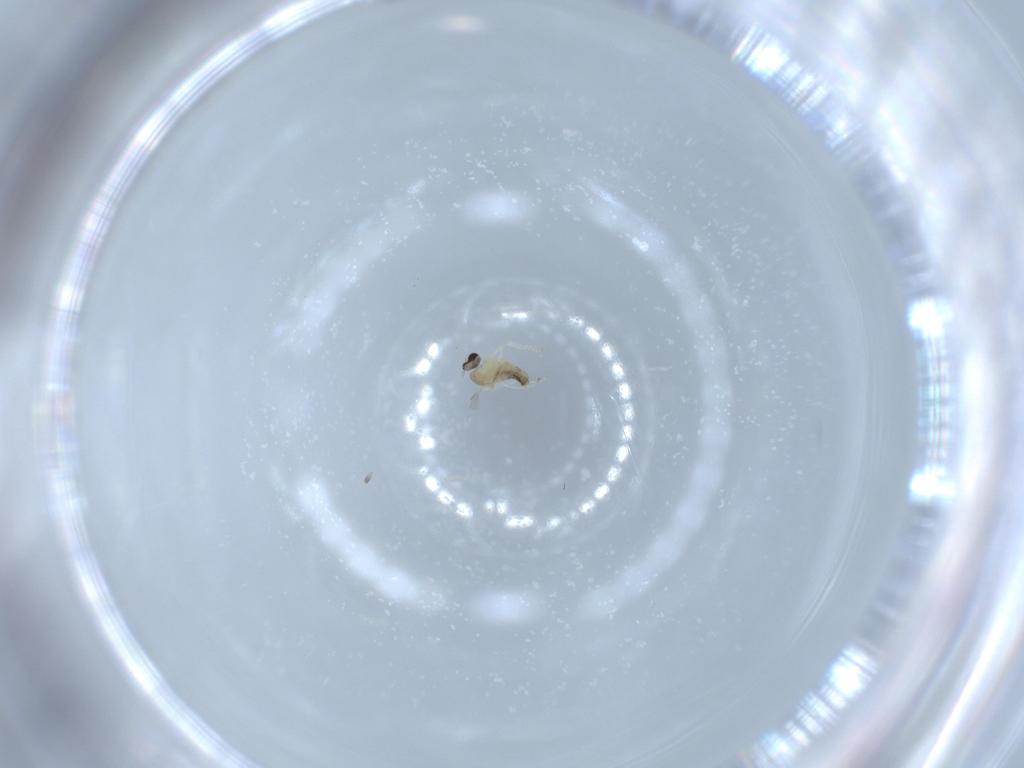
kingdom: Animalia
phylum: Arthropoda
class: Insecta
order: Diptera
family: Cecidomyiidae
